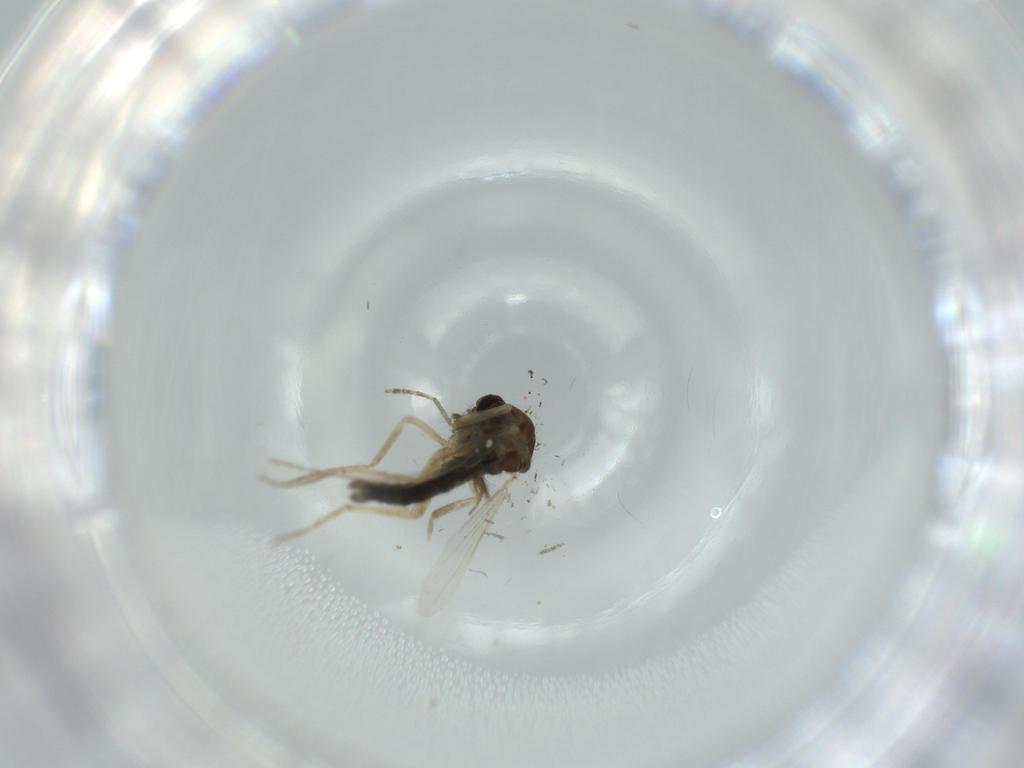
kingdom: Animalia
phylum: Arthropoda
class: Insecta
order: Diptera
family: Ceratopogonidae
